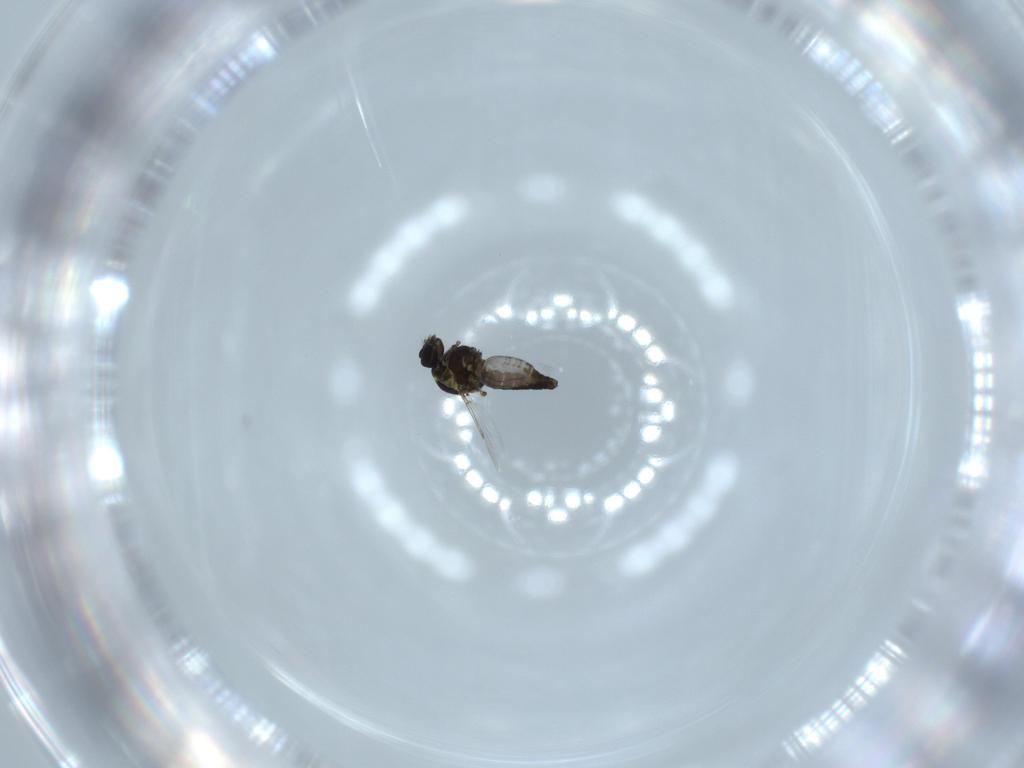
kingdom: Animalia
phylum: Arthropoda
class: Insecta
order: Diptera
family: Ceratopogonidae
